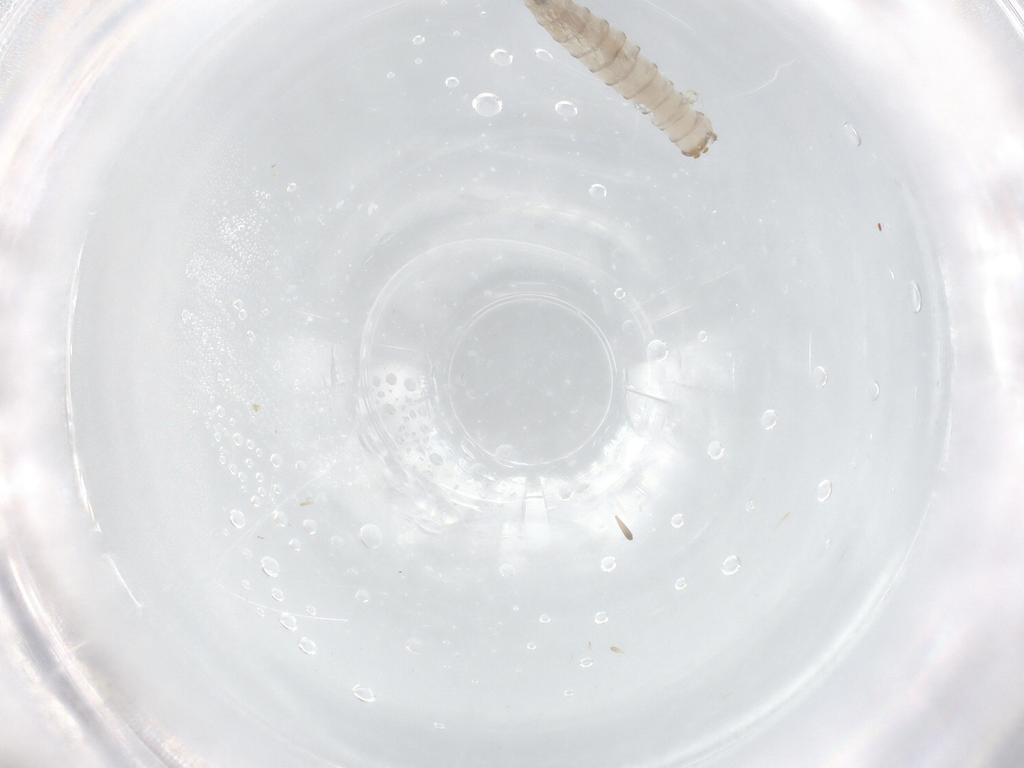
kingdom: Animalia
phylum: Arthropoda
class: Insecta
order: Diptera
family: Sarcophagidae
